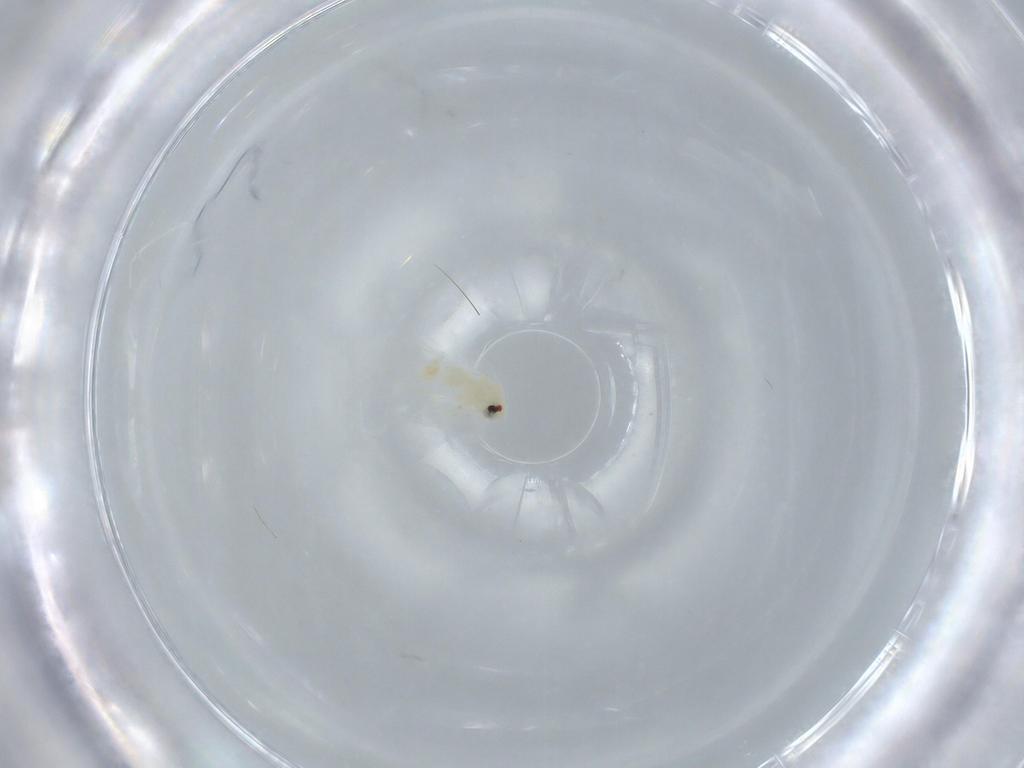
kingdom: Animalia
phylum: Arthropoda
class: Insecta
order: Hemiptera
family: Aleyrodidae
